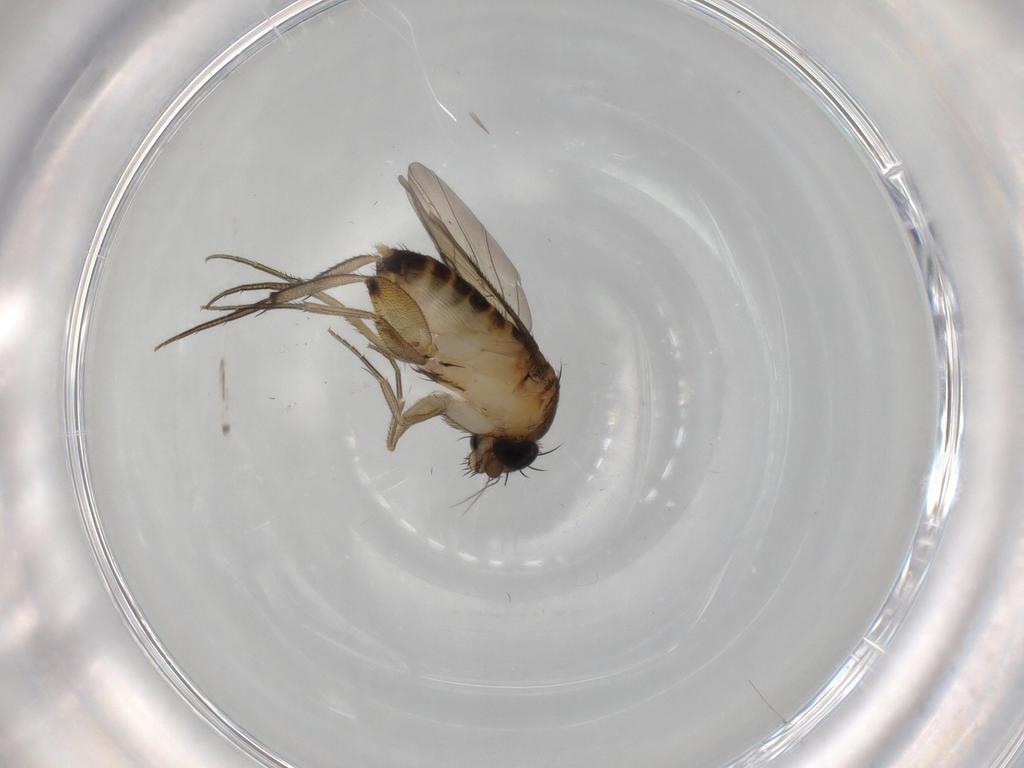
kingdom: Animalia
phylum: Arthropoda
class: Insecta
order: Diptera
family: Phoridae
